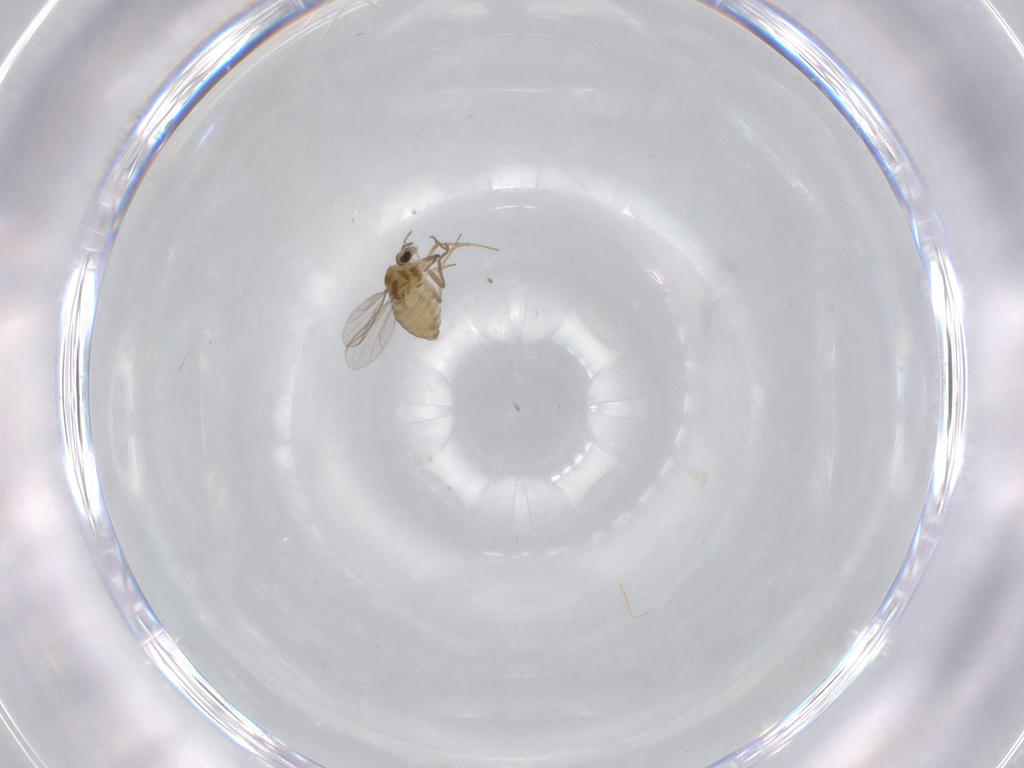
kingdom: Animalia
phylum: Arthropoda
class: Insecta
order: Diptera
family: Chironomidae
